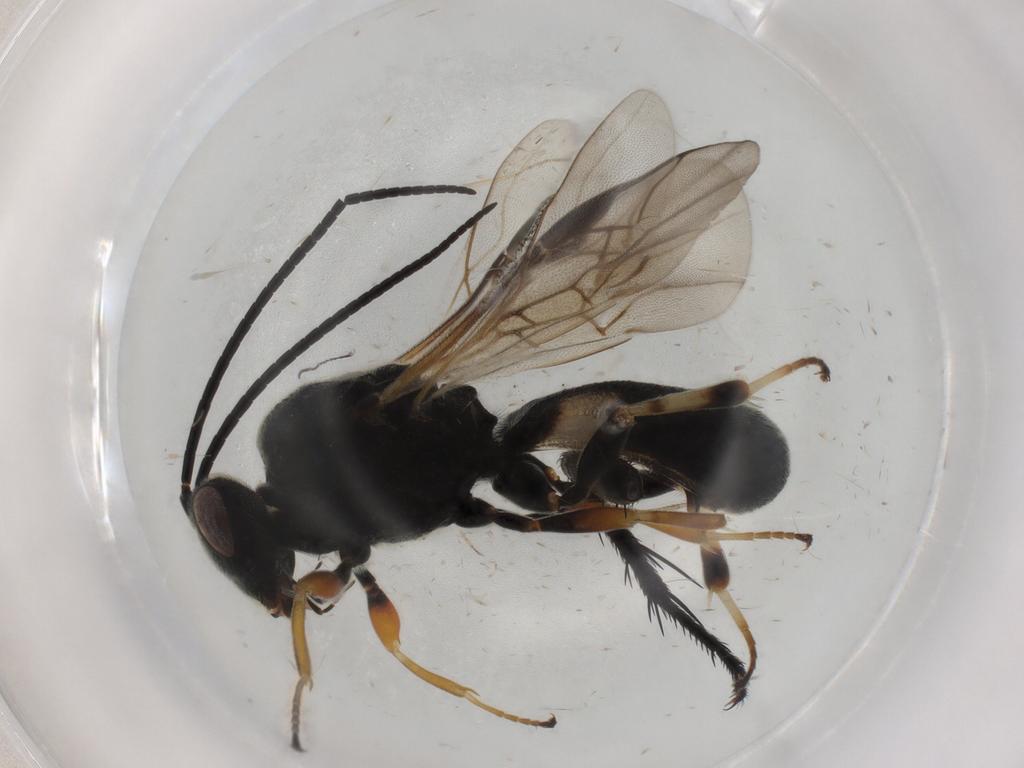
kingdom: Animalia
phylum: Arthropoda
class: Insecta
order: Hymenoptera
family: Braconidae
